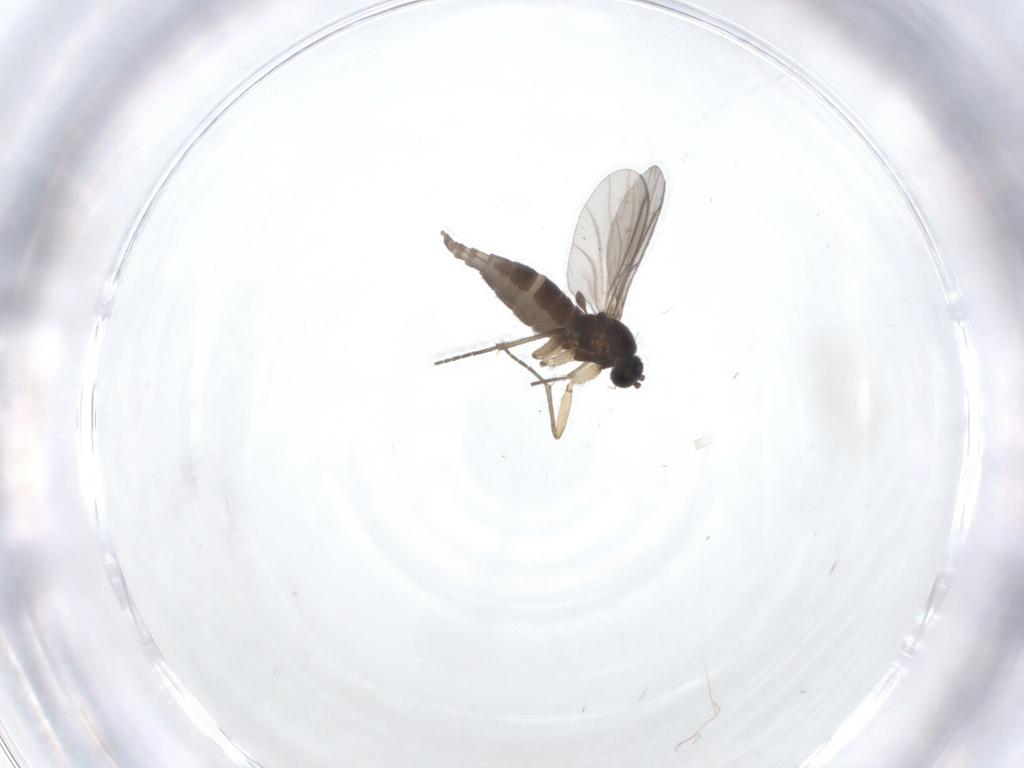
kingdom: Animalia
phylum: Arthropoda
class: Insecta
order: Diptera
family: Sciaridae
